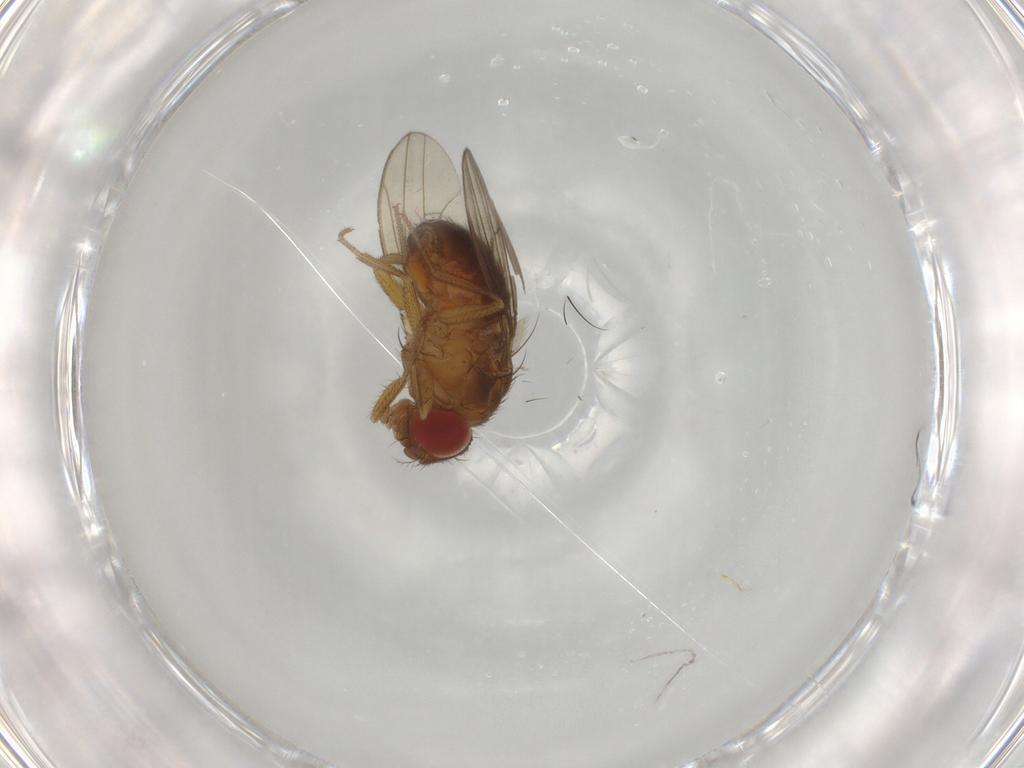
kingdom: Animalia
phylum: Arthropoda
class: Insecta
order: Diptera
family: Drosophilidae
